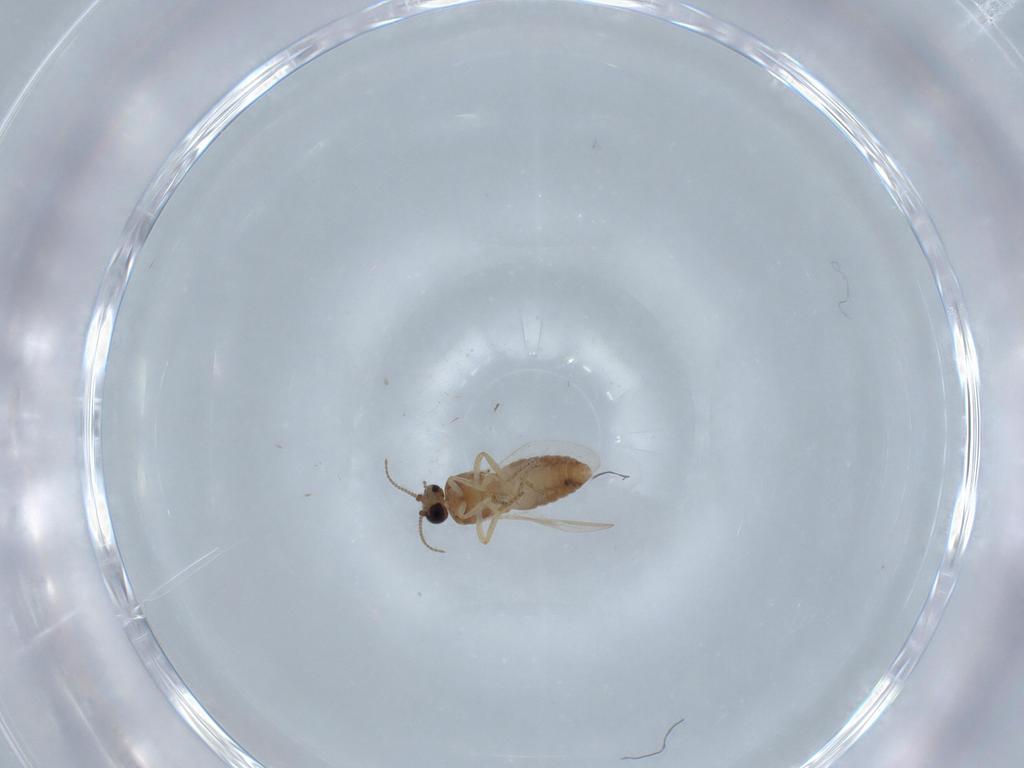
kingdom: Animalia
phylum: Arthropoda
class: Insecta
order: Diptera
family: Ceratopogonidae
